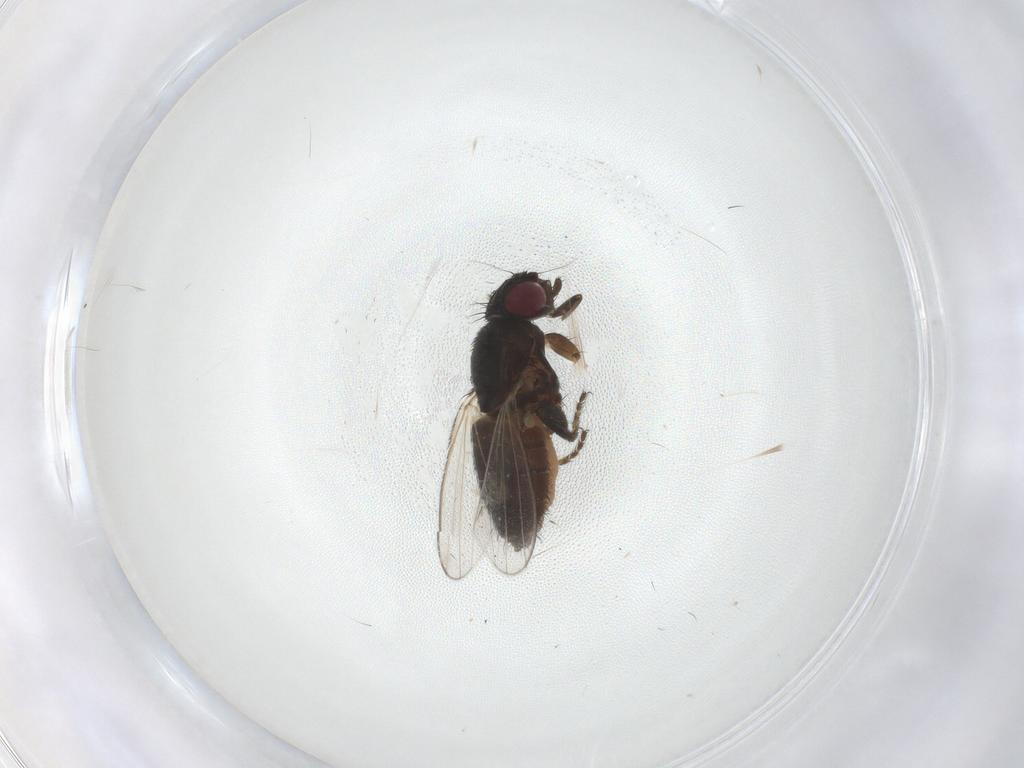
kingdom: Animalia
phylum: Arthropoda
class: Insecta
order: Diptera
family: Milichiidae
